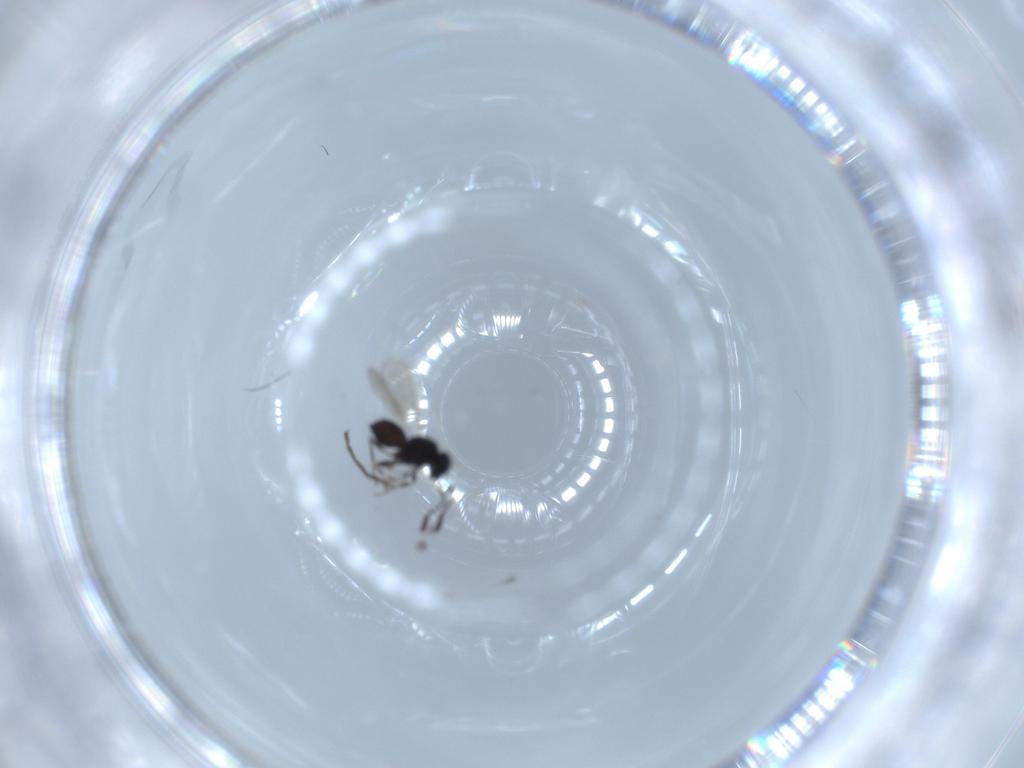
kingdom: Animalia
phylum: Arthropoda
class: Insecta
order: Hymenoptera
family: Scelionidae
